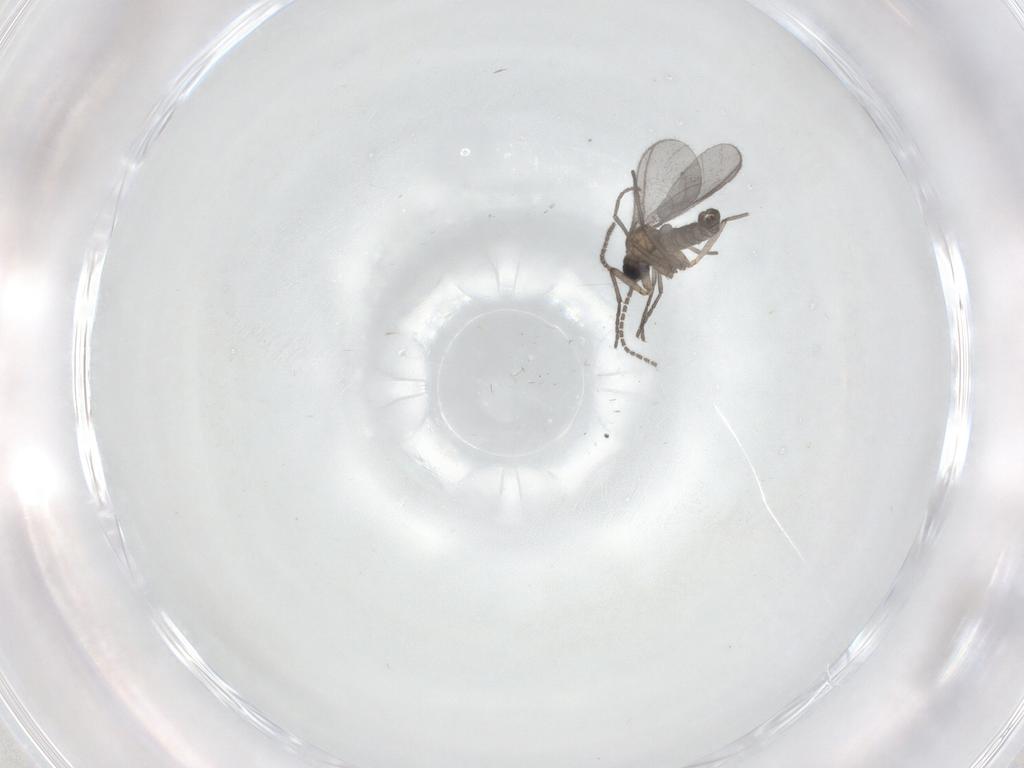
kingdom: Animalia
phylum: Arthropoda
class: Insecta
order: Diptera
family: Sciaridae
